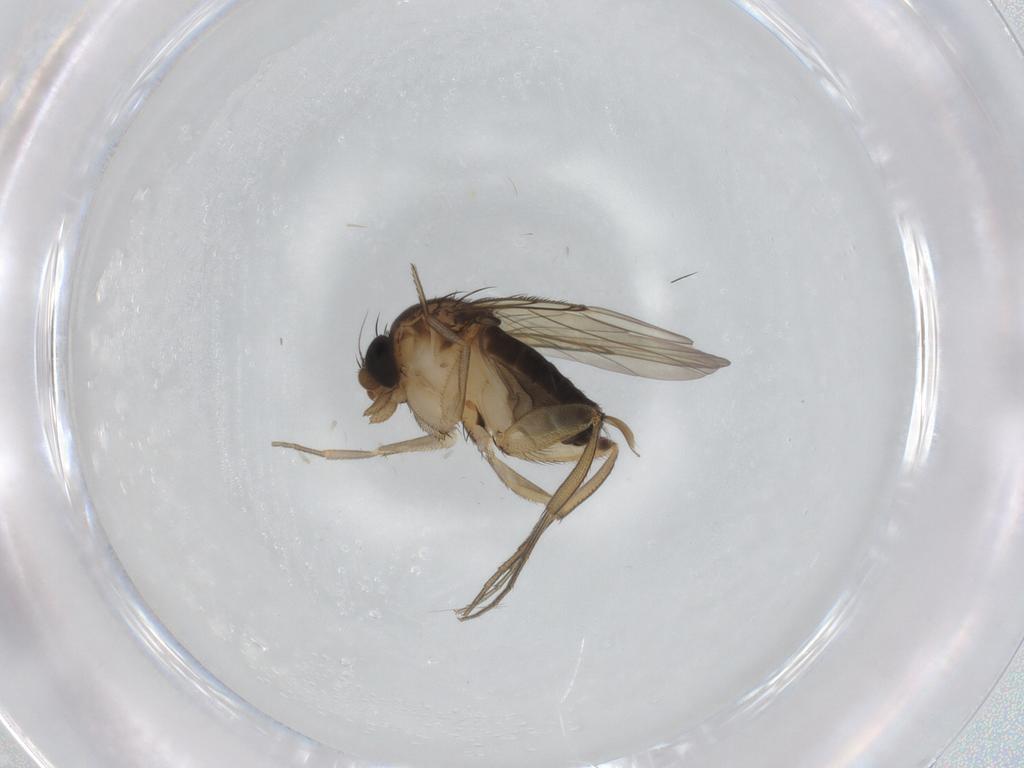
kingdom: Animalia
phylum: Arthropoda
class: Insecta
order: Diptera
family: Phoridae
